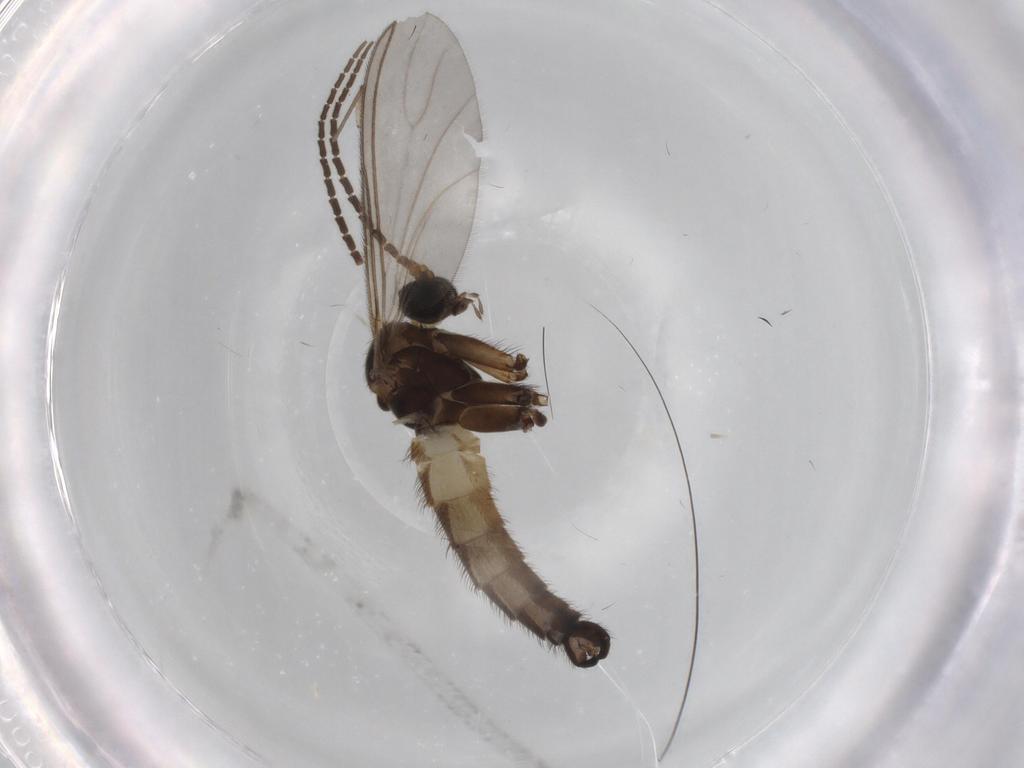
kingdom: Animalia
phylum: Arthropoda
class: Insecta
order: Diptera
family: Sciaridae
